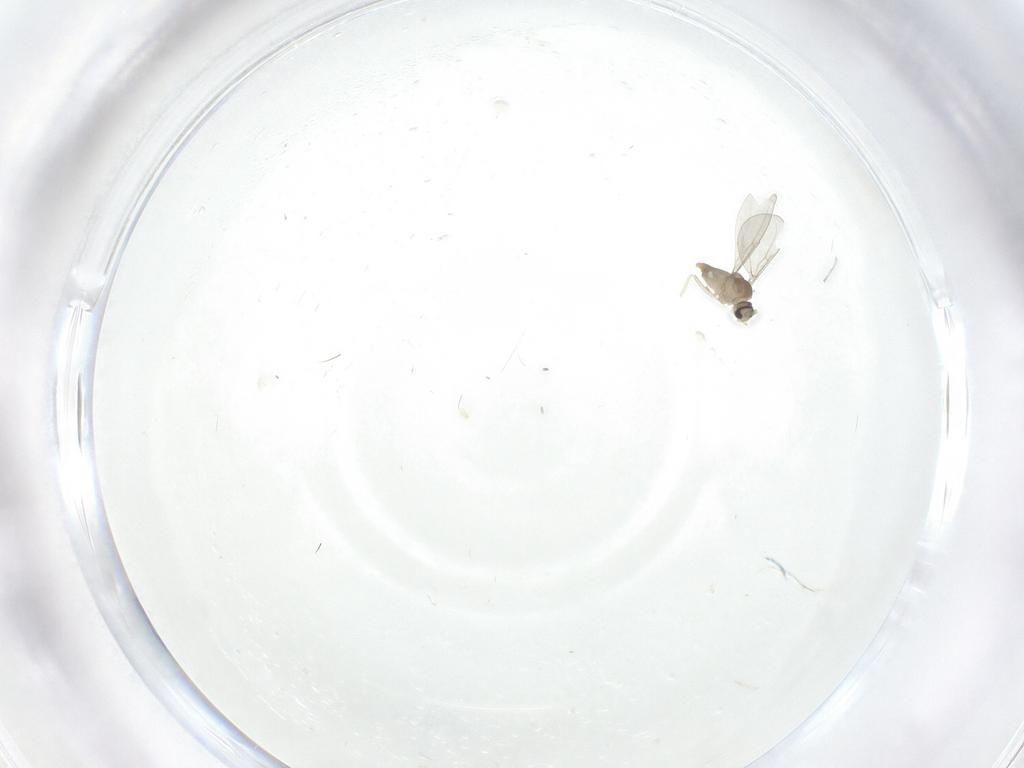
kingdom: Animalia
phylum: Arthropoda
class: Insecta
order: Diptera
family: Cecidomyiidae
